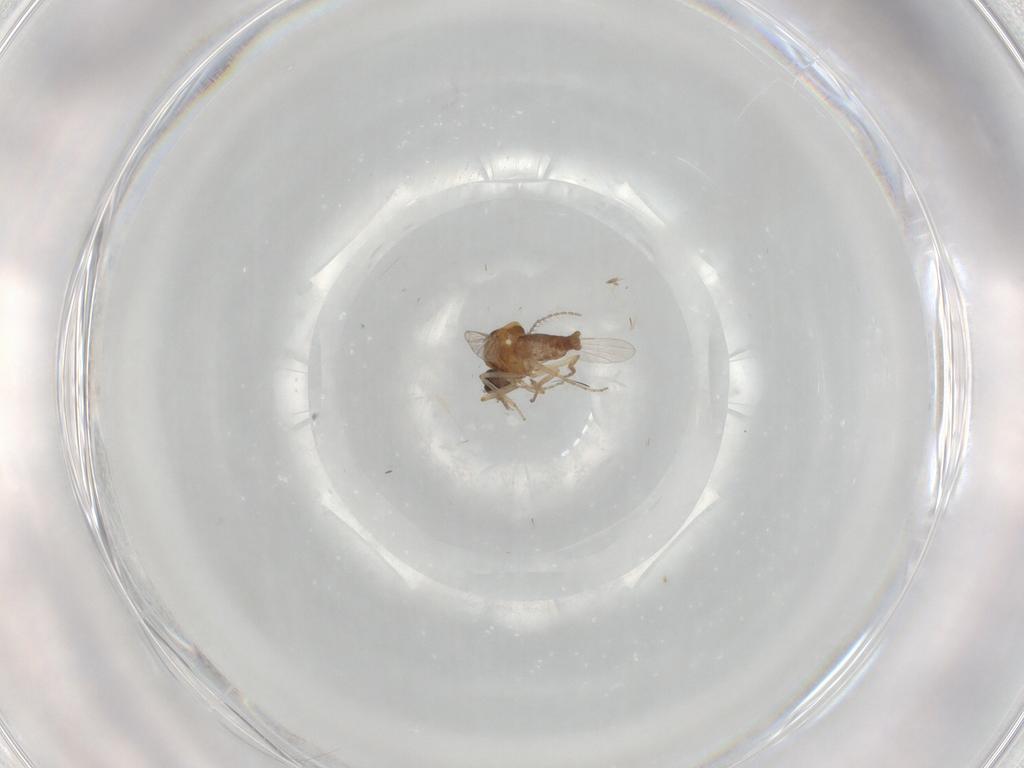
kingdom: Animalia
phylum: Arthropoda
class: Insecta
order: Diptera
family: Ceratopogonidae
